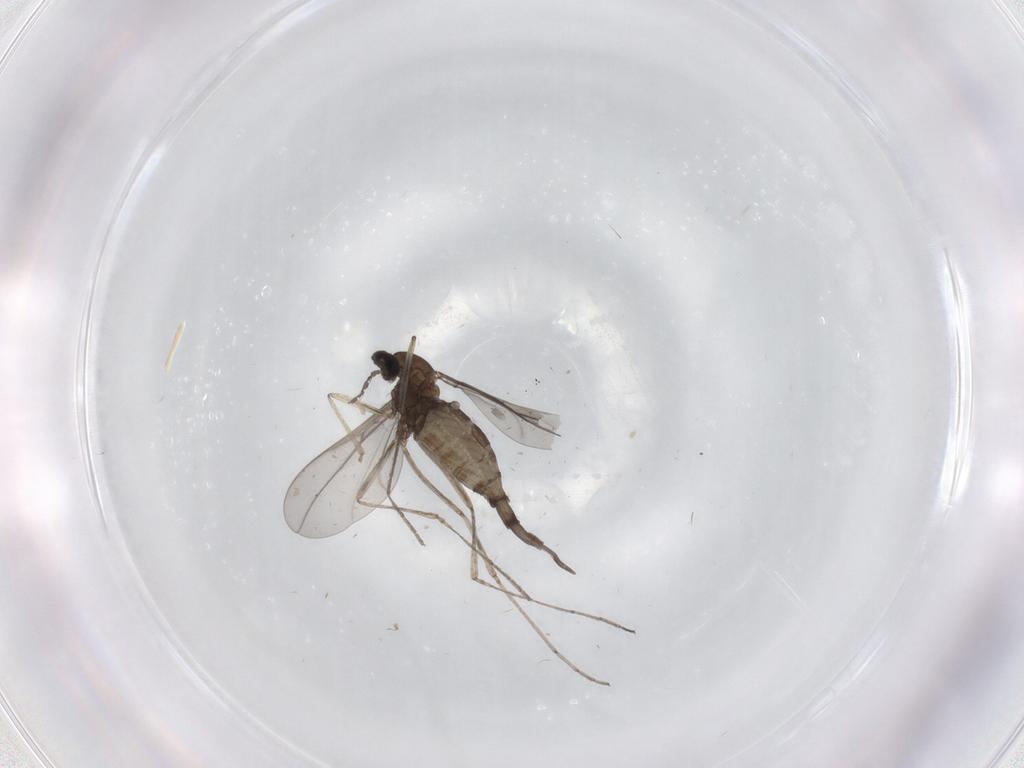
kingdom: Animalia
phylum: Arthropoda
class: Insecta
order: Diptera
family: Cecidomyiidae
